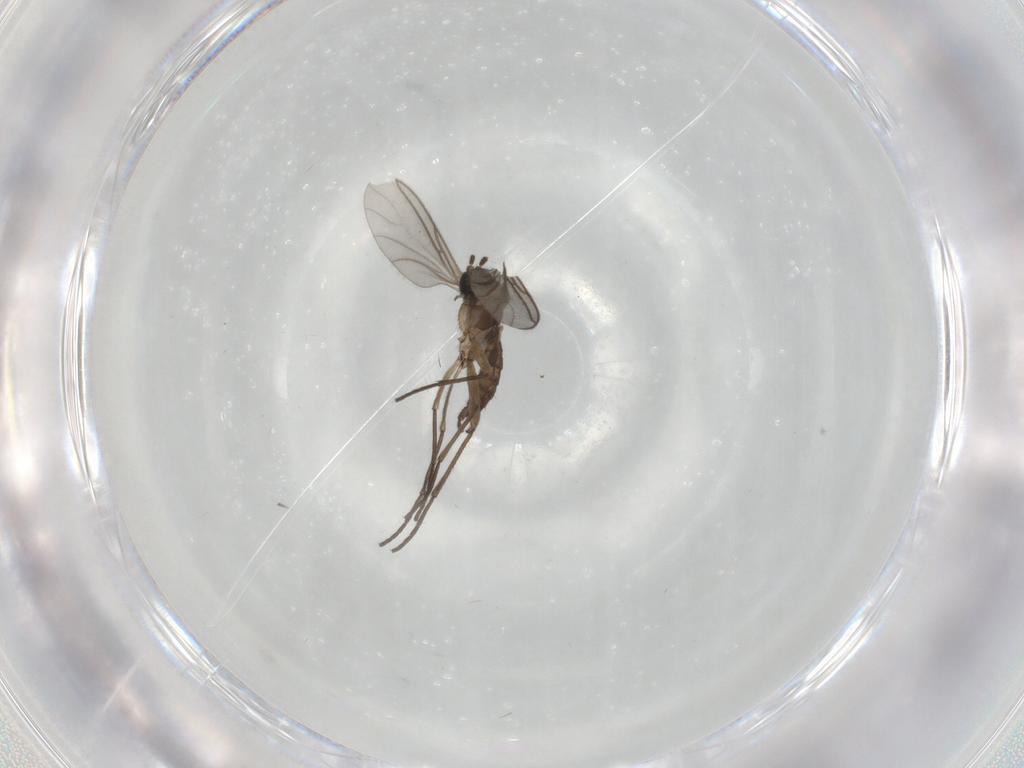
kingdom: Animalia
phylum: Arthropoda
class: Insecta
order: Diptera
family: Sciaridae
